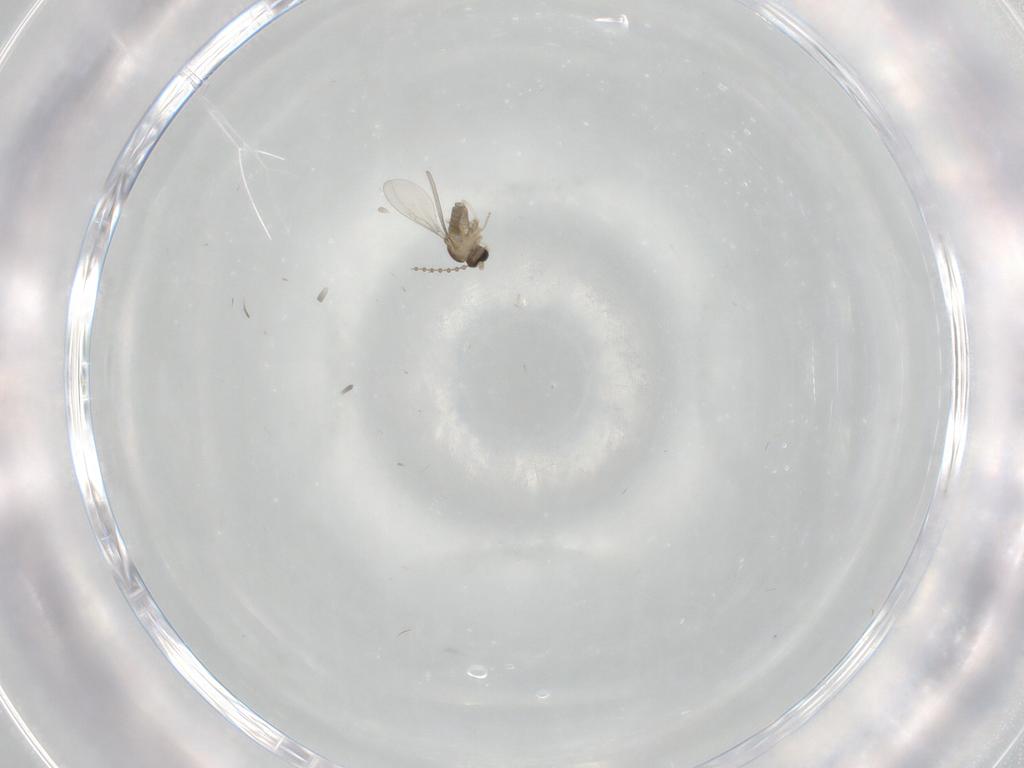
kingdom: Animalia
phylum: Arthropoda
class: Insecta
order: Diptera
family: Cecidomyiidae
